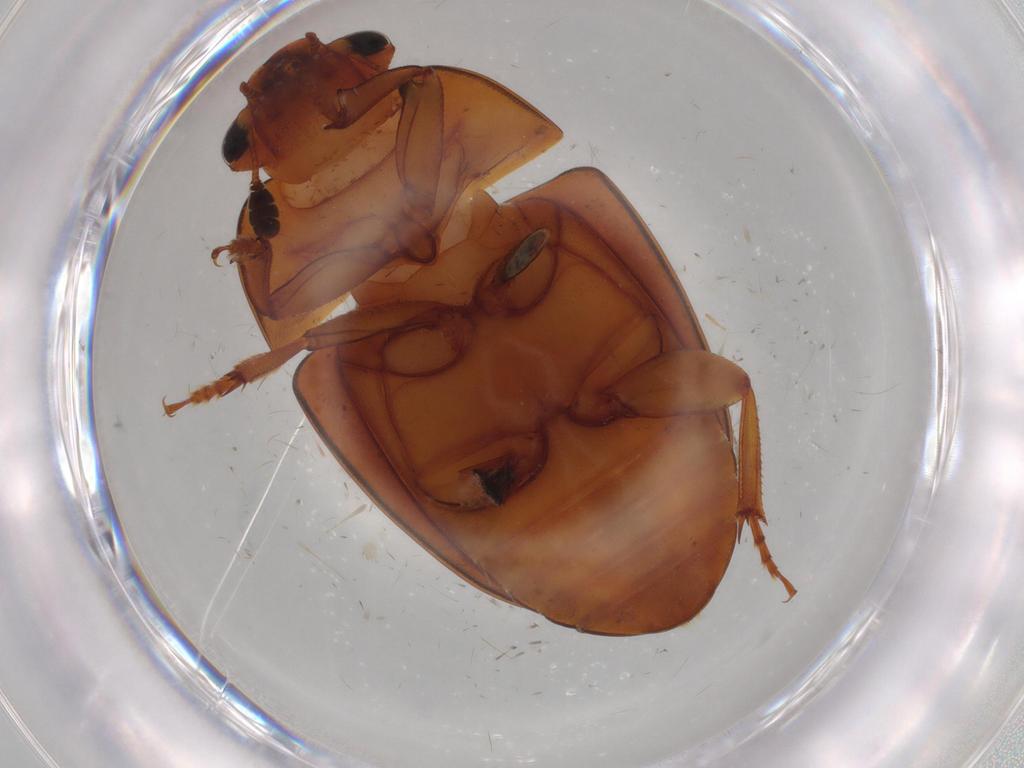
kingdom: Animalia
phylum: Arthropoda
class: Insecta
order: Coleoptera
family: Nitidulidae
